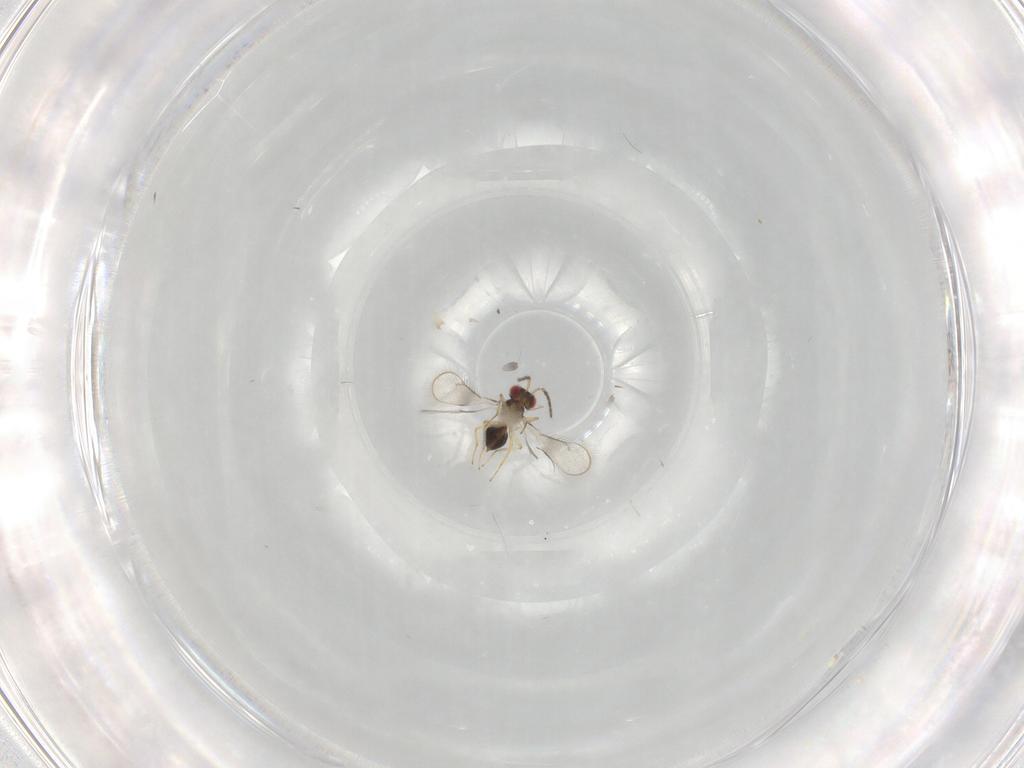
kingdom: Animalia
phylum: Arthropoda
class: Insecta
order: Hymenoptera
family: Eulophidae
